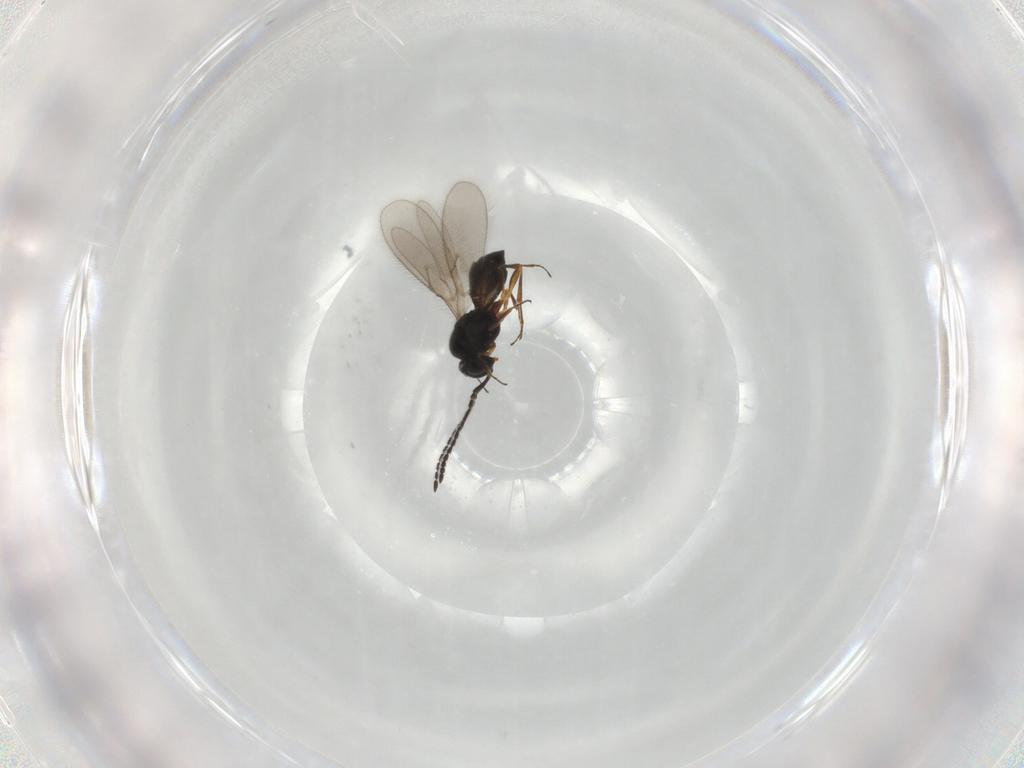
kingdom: Animalia
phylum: Arthropoda
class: Insecta
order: Hymenoptera
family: Scelionidae
